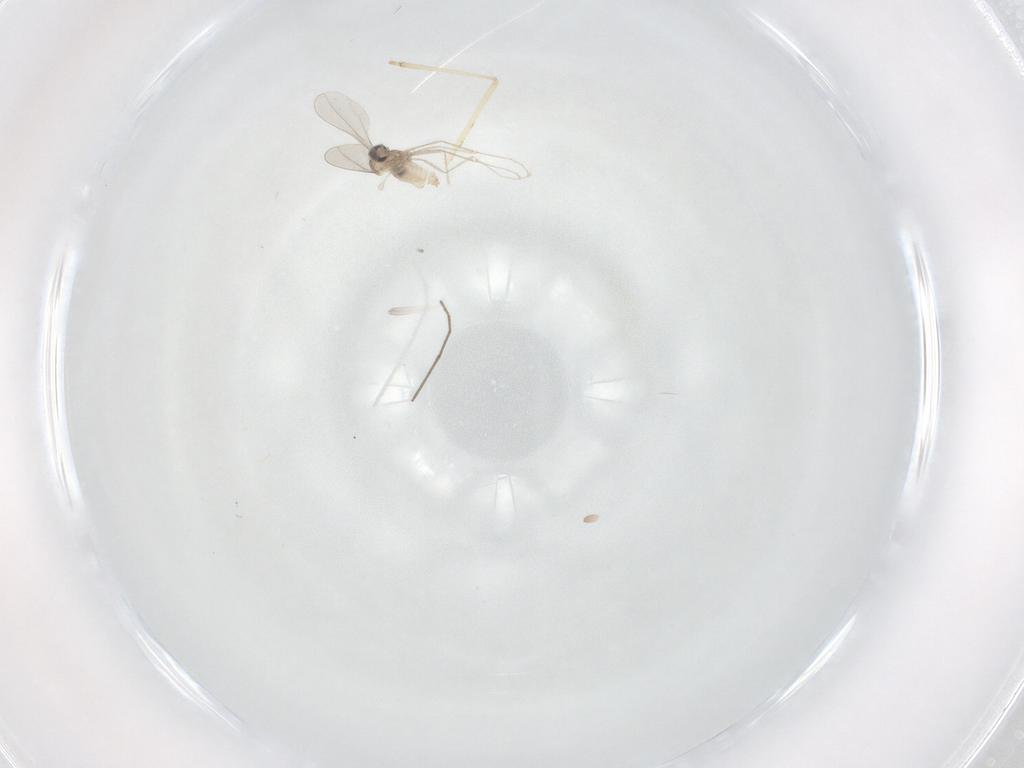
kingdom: Animalia
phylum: Arthropoda
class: Insecta
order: Diptera
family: Cecidomyiidae
